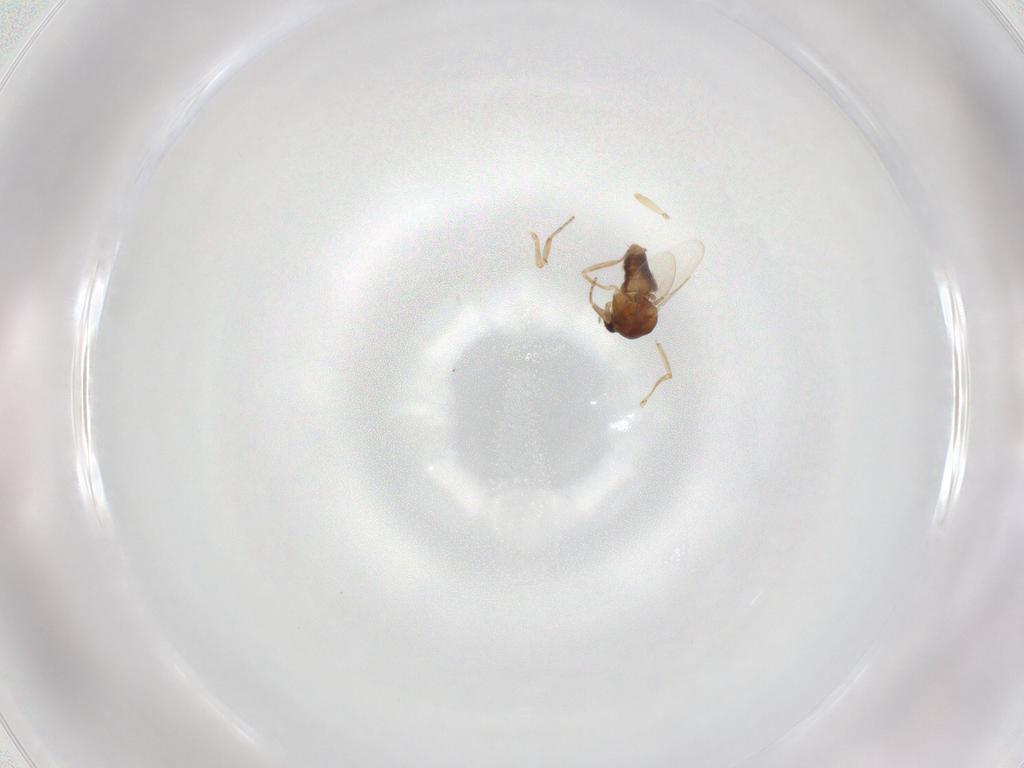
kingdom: Animalia
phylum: Arthropoda
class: Insecta
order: Diptera
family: Ceratopogonidae
